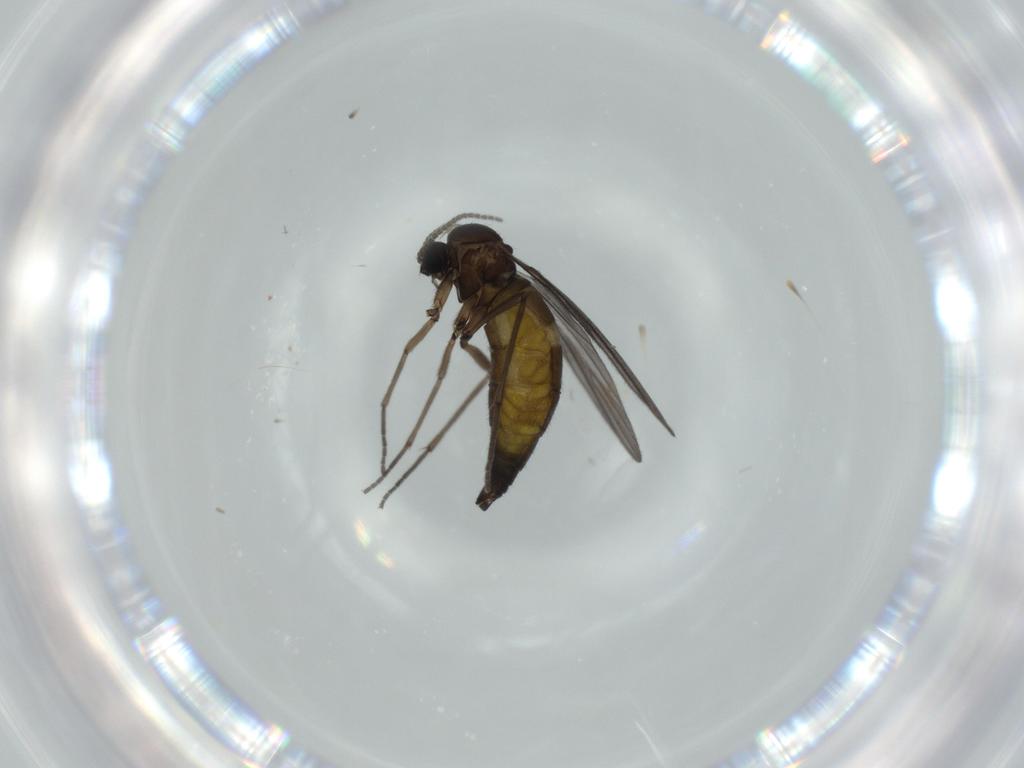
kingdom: Animalia
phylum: Arthropoda
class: Insecta
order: Diptera
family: Sciaridae
